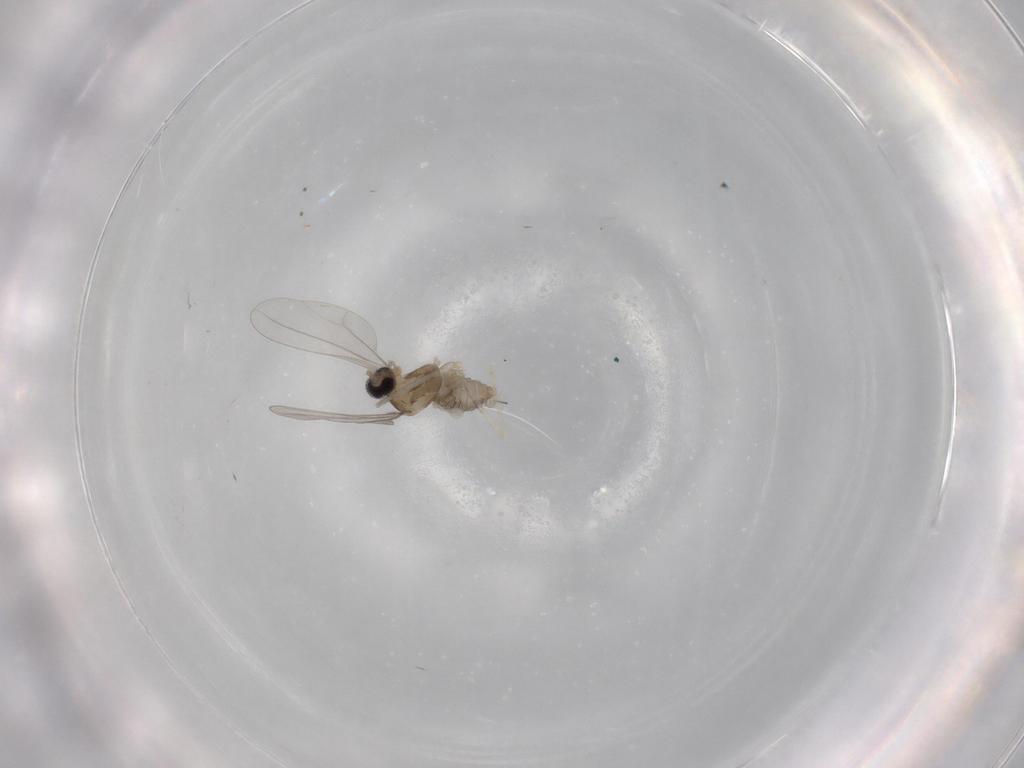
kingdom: Animalia
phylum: Arthropoda
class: Insecta
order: Diptera
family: Cecidomyiidae
